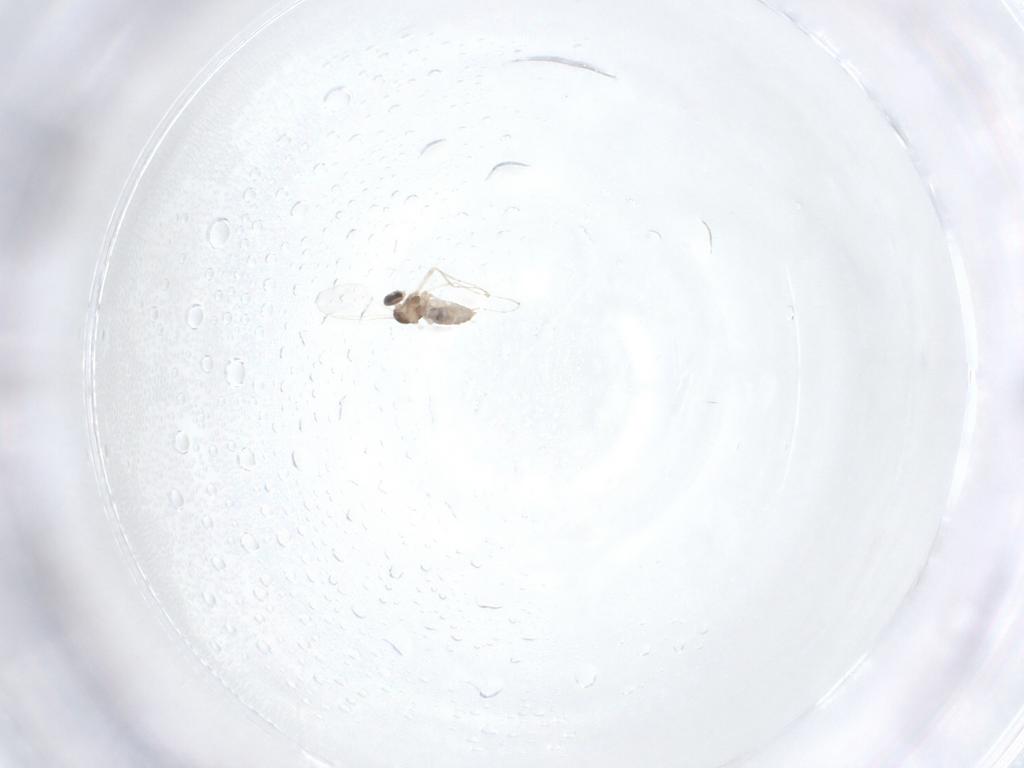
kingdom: Animalia
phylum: Arthropoda
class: Insecta
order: Diptera
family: Cecidomyiidae
